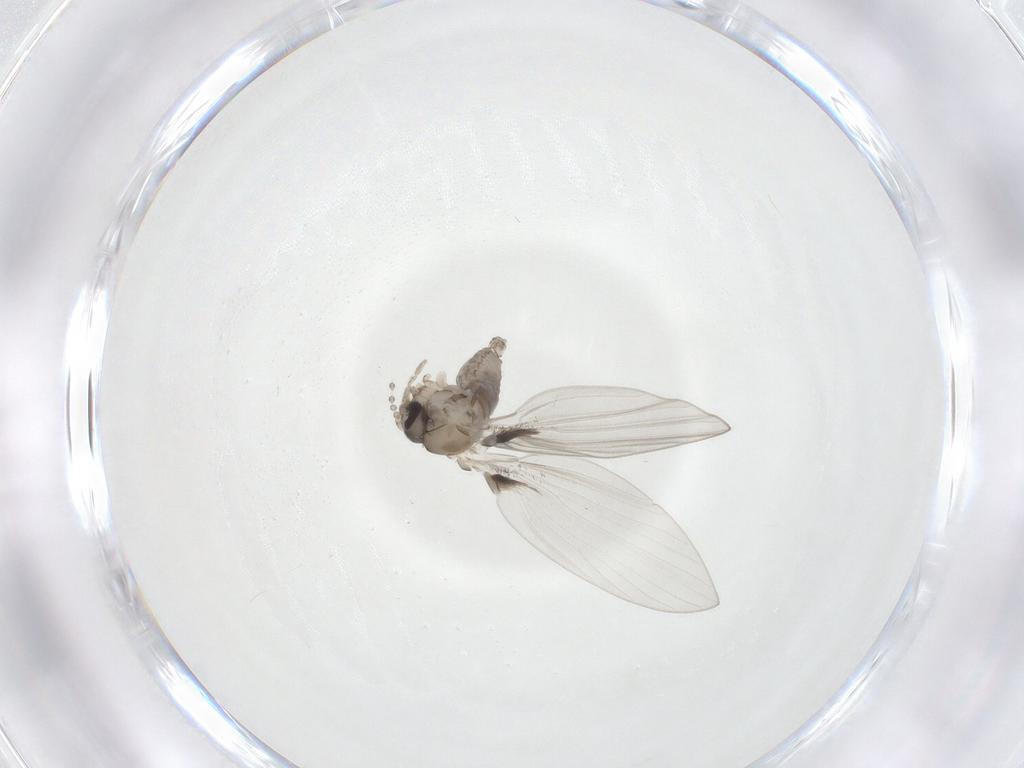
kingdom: Animalia
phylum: Arthropoda
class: Insecta
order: Diptera
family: Psychodidae
